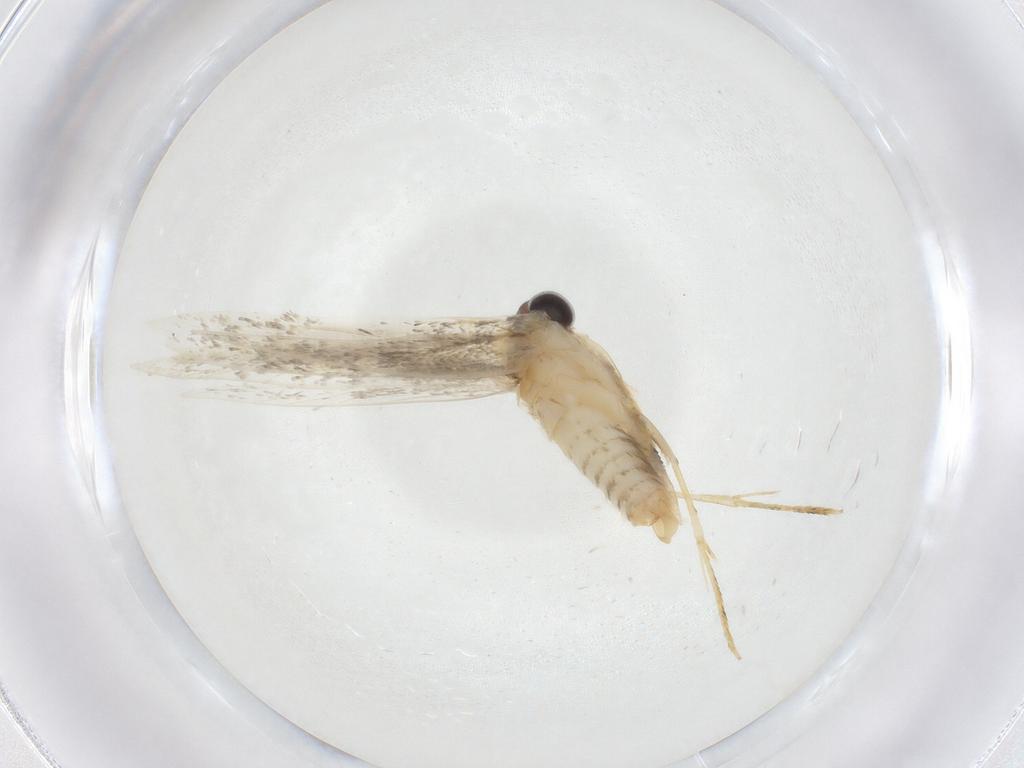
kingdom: Animalia
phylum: Arthropoda
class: Insecta
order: Lepidoptera
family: Tineidae
